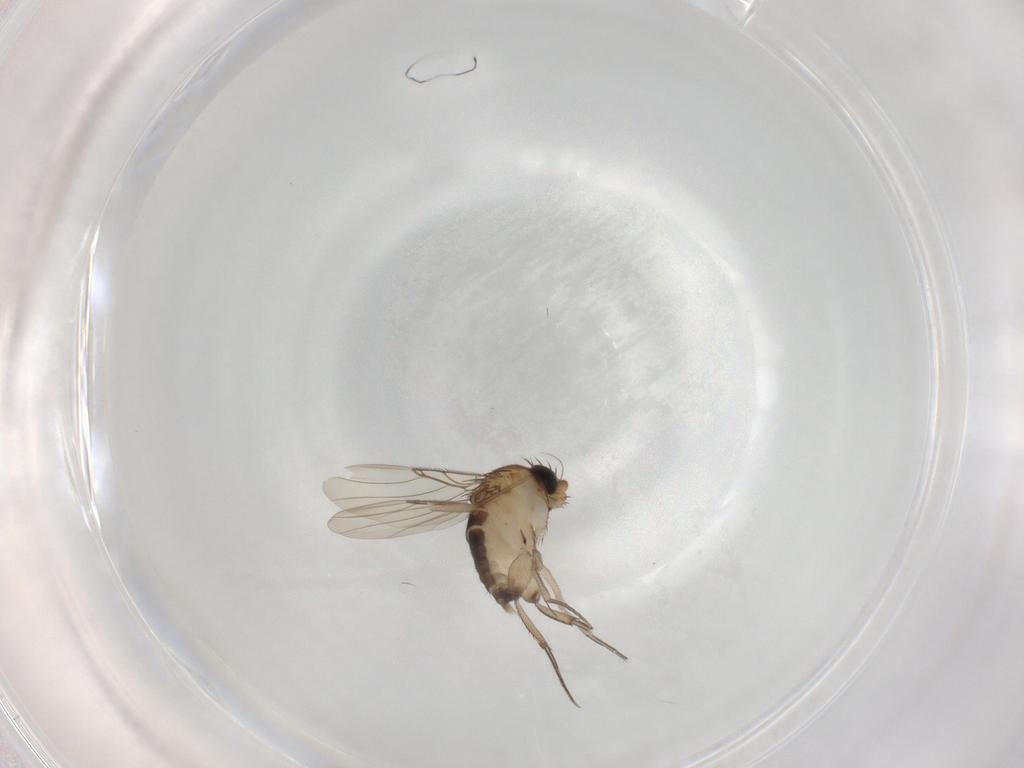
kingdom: Animalia
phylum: Arthropoda
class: Insecta
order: Diptera
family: Phoridae
